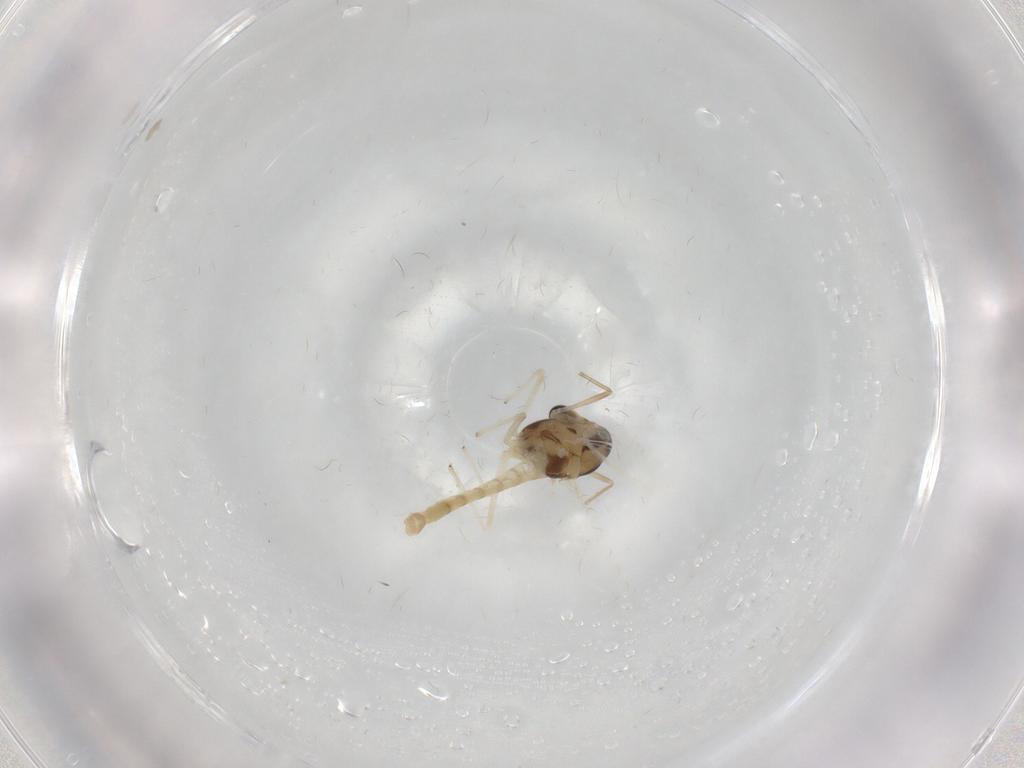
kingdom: Animalia
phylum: Arthropoda
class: Insecta
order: Diptera
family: Chironomidae
